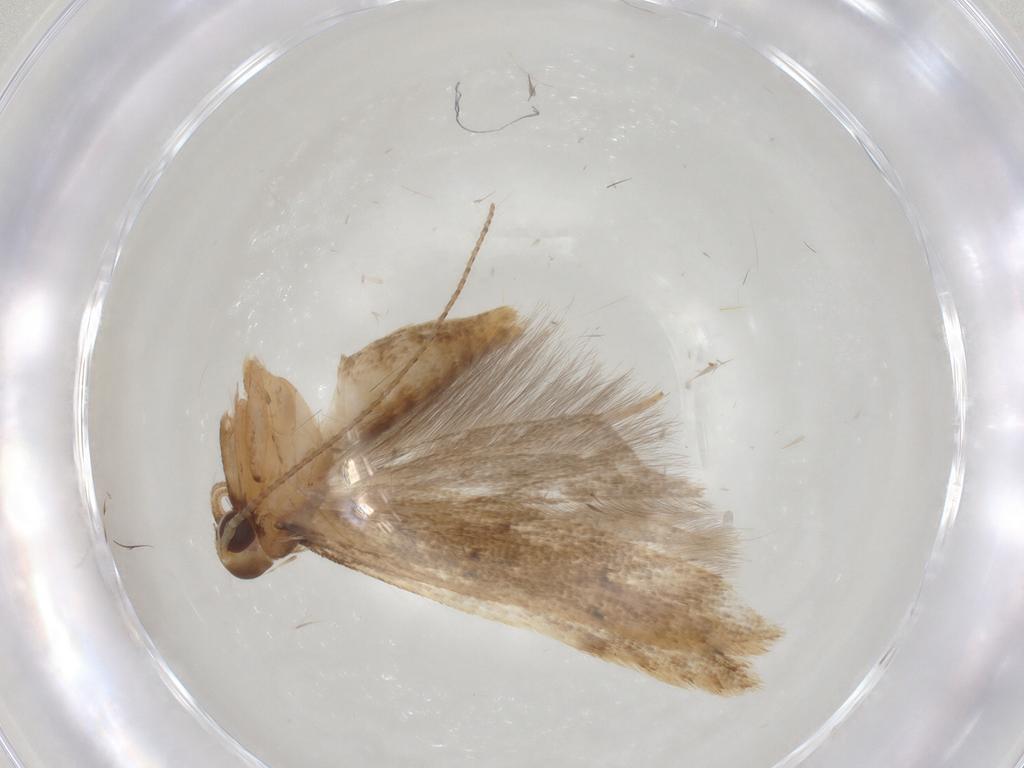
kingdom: Animalia
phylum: Arthropoda
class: Insecta
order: Lepidoptera
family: Gelechiidae
